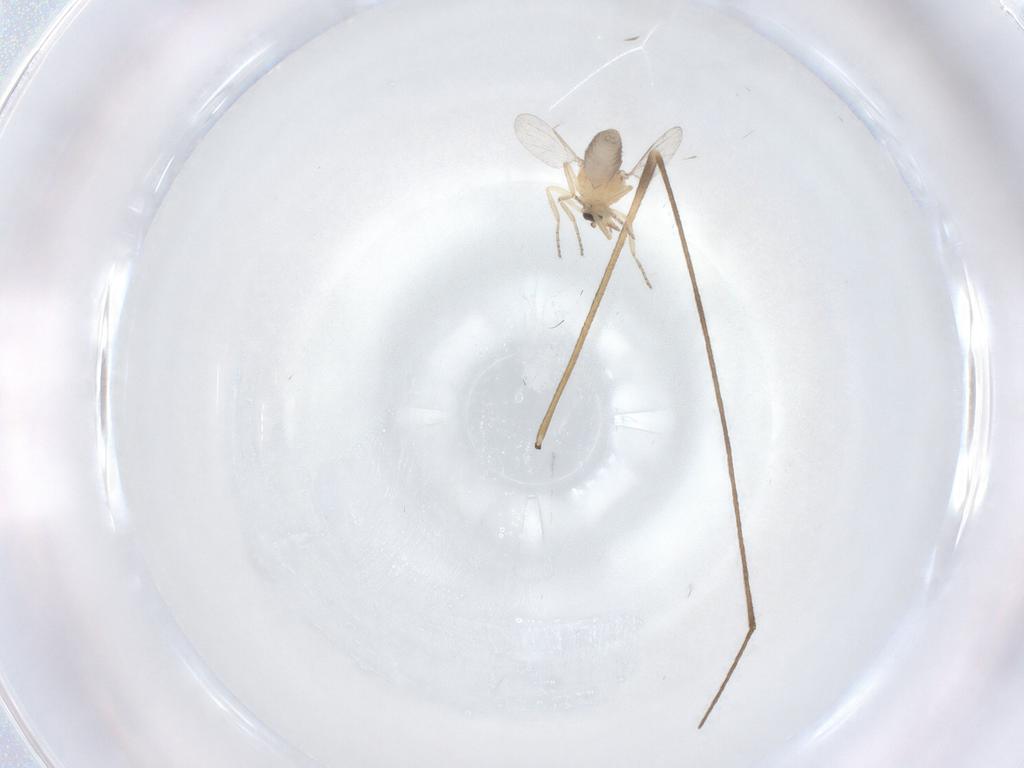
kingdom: Animalia
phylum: Arthropoda
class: Insecta
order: Diptera
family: Ceratopogonidae
